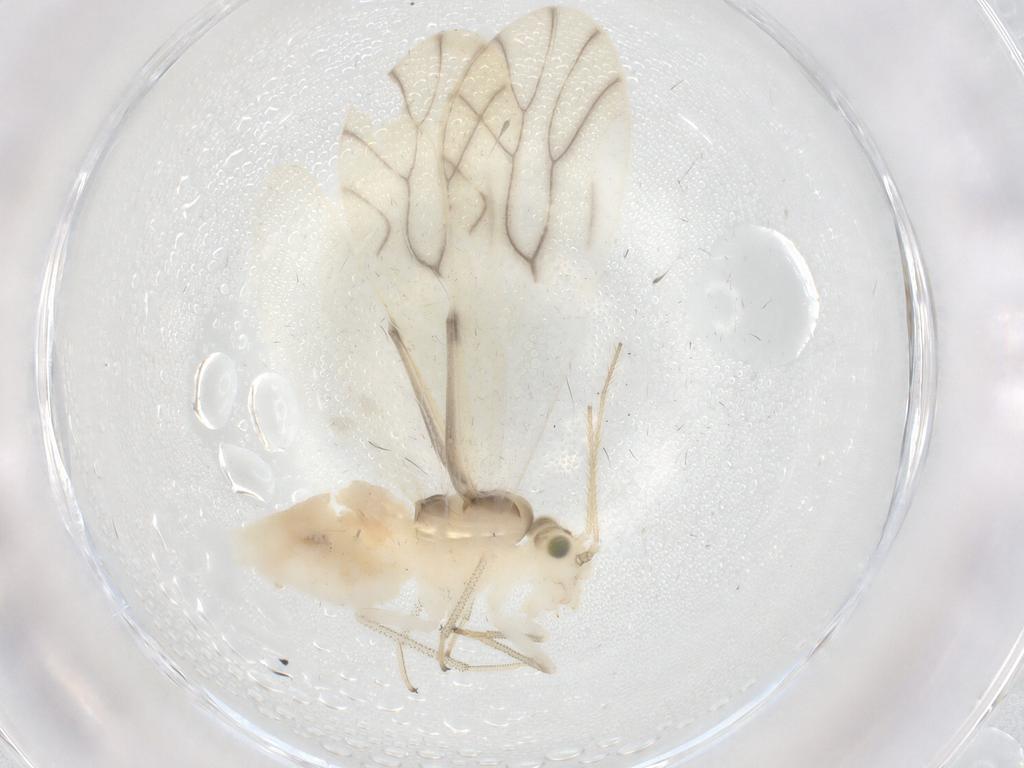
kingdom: Animalia
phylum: Arthropoda
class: Insecta
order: Psocodea
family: Caeciliusidae
